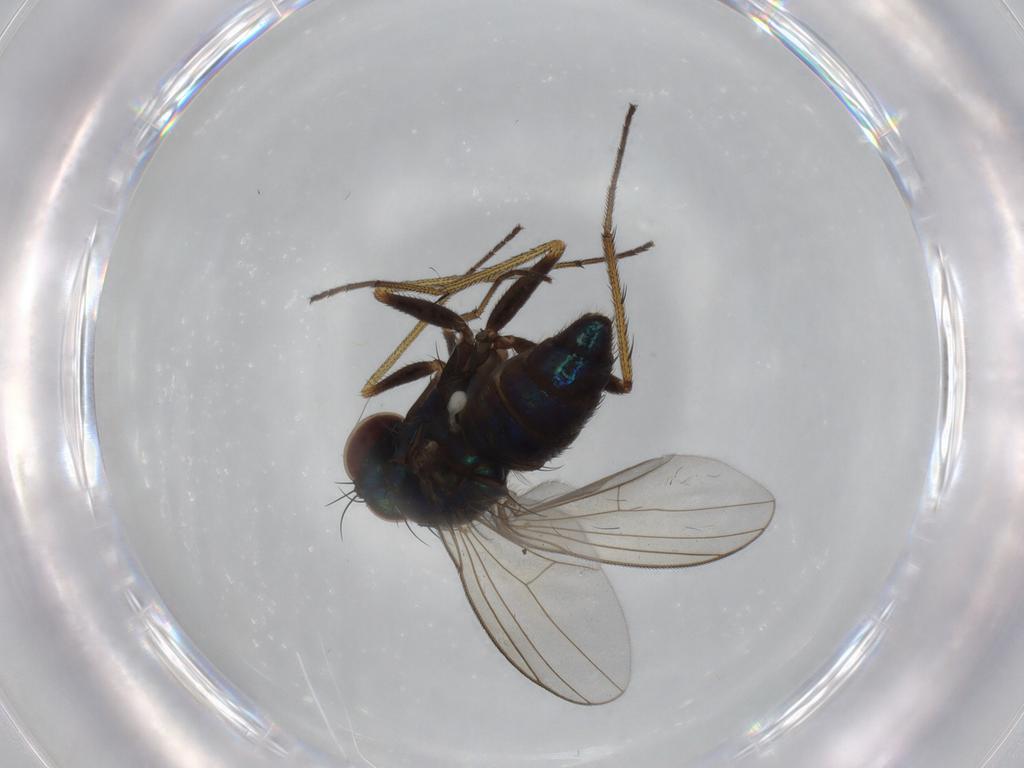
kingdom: Animalia
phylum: Arthropoda
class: Insecta
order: Diptera
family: Dolichopodidae
